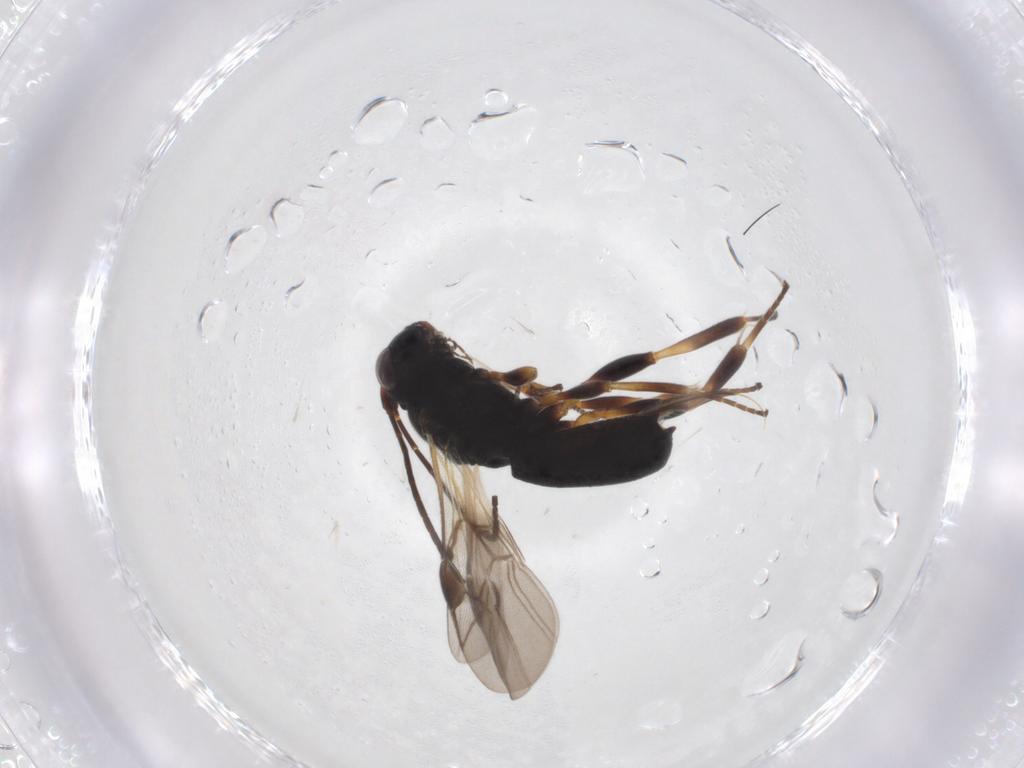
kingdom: Animalia
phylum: Arthropoda
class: Insecta
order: Hymenoptera
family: Braconidae
